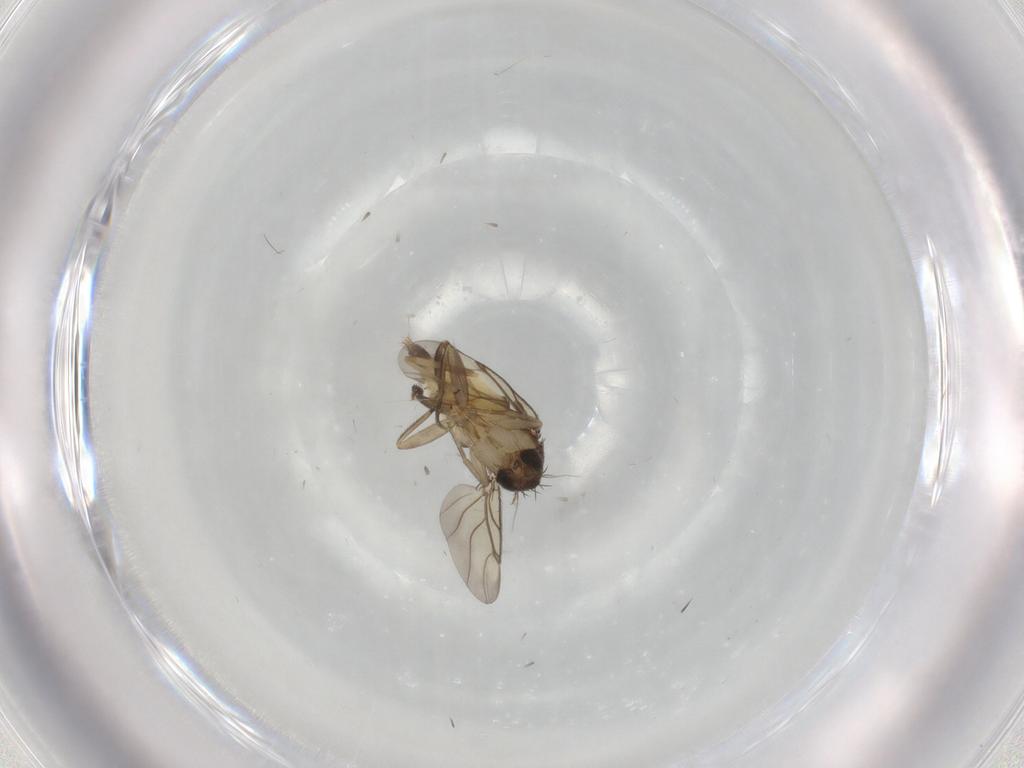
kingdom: Animalia
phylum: Arthropoda
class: Insecta
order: Diptera
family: Phoridae
